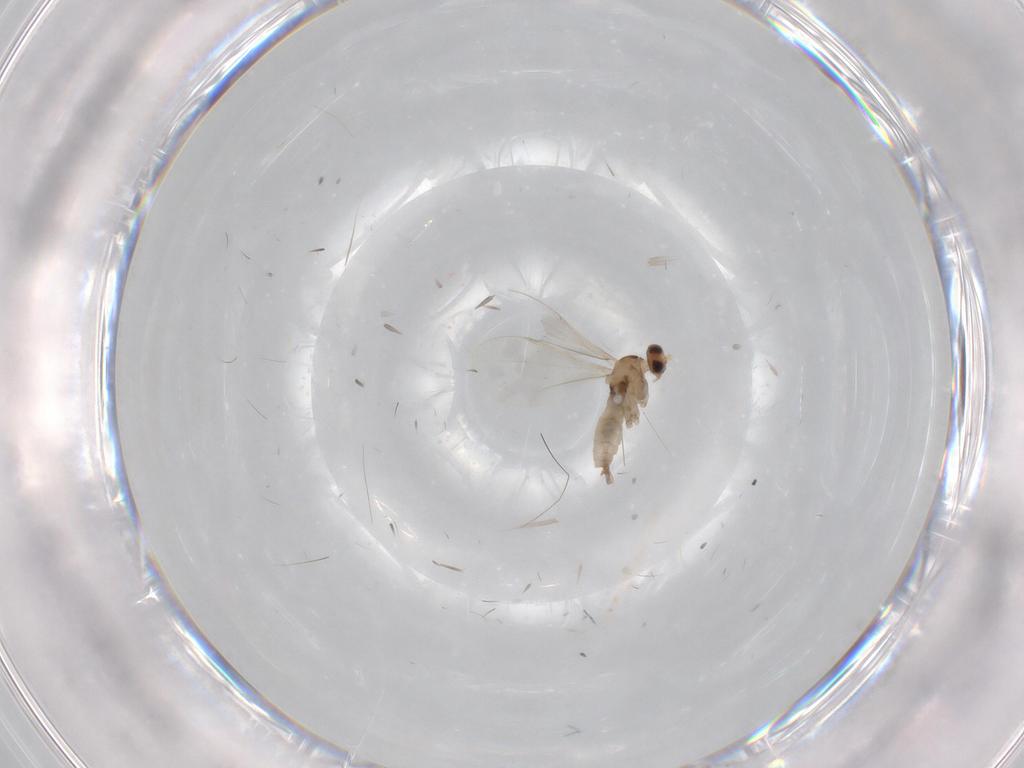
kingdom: Animalia
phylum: Arthropoda
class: Insecta
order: Diptera
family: Cecidomyiidae
